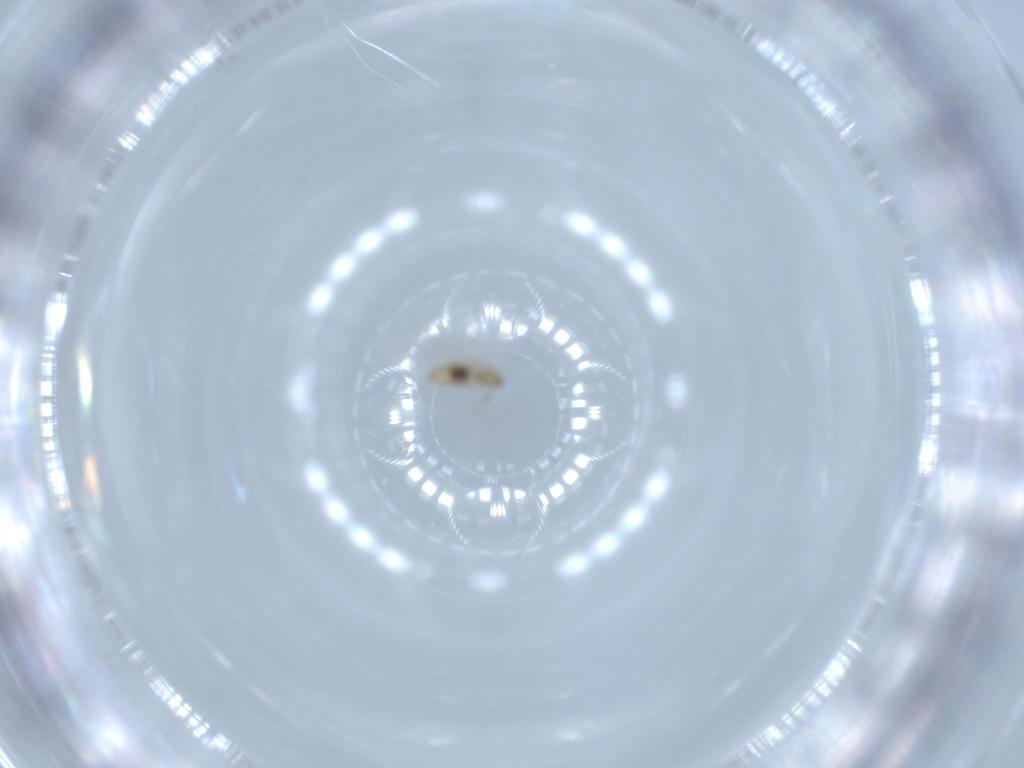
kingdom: Animalia
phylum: Arthropoda
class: Insecta
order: Diptera
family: Cecidomyiidae
